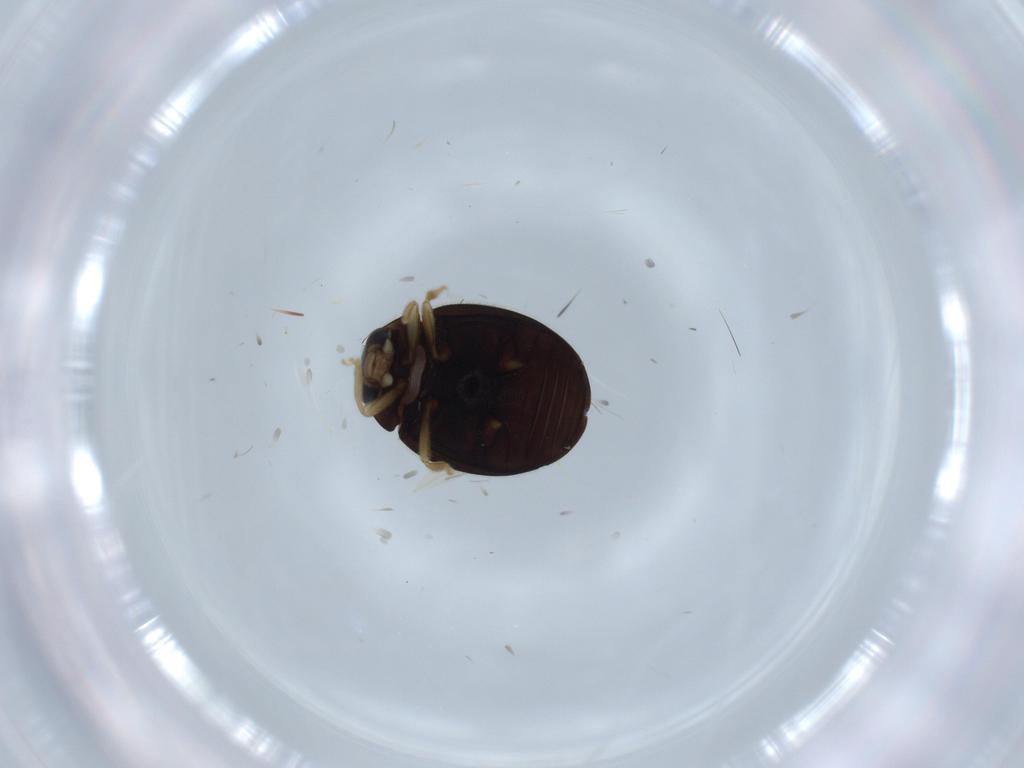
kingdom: Animalia
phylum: Arthropoda
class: Insecta
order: Coleoptera
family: Coccinellidae
